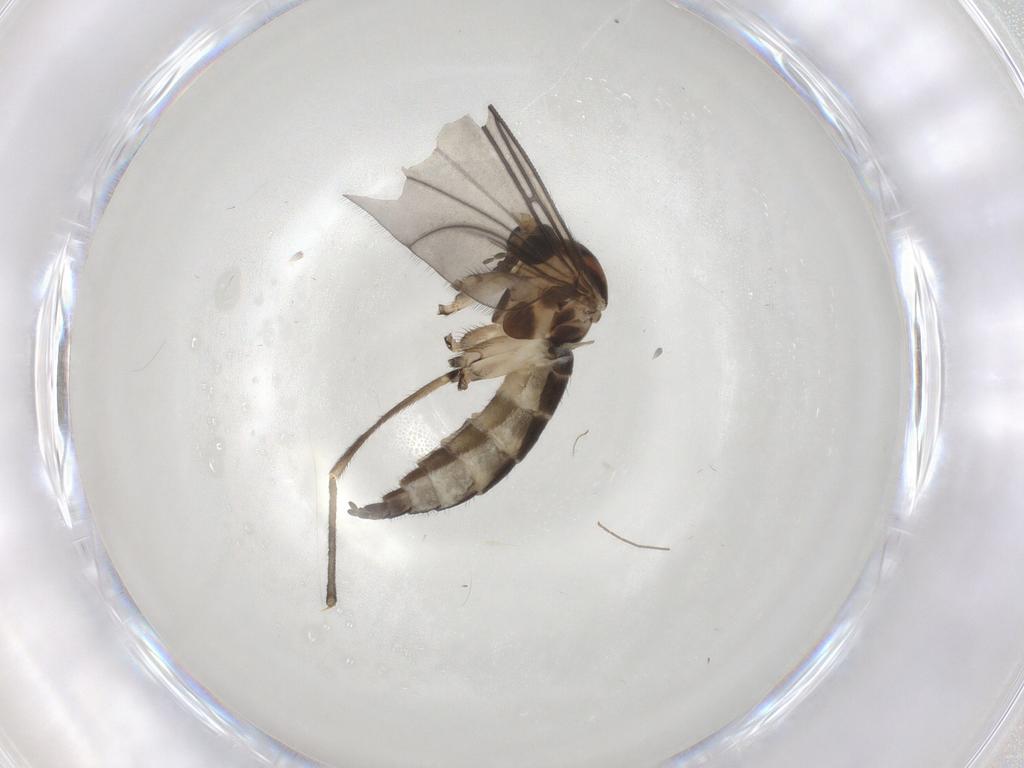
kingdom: Animalia
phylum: Arthropoda
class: Insecta
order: Diptera
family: Sciaridae
